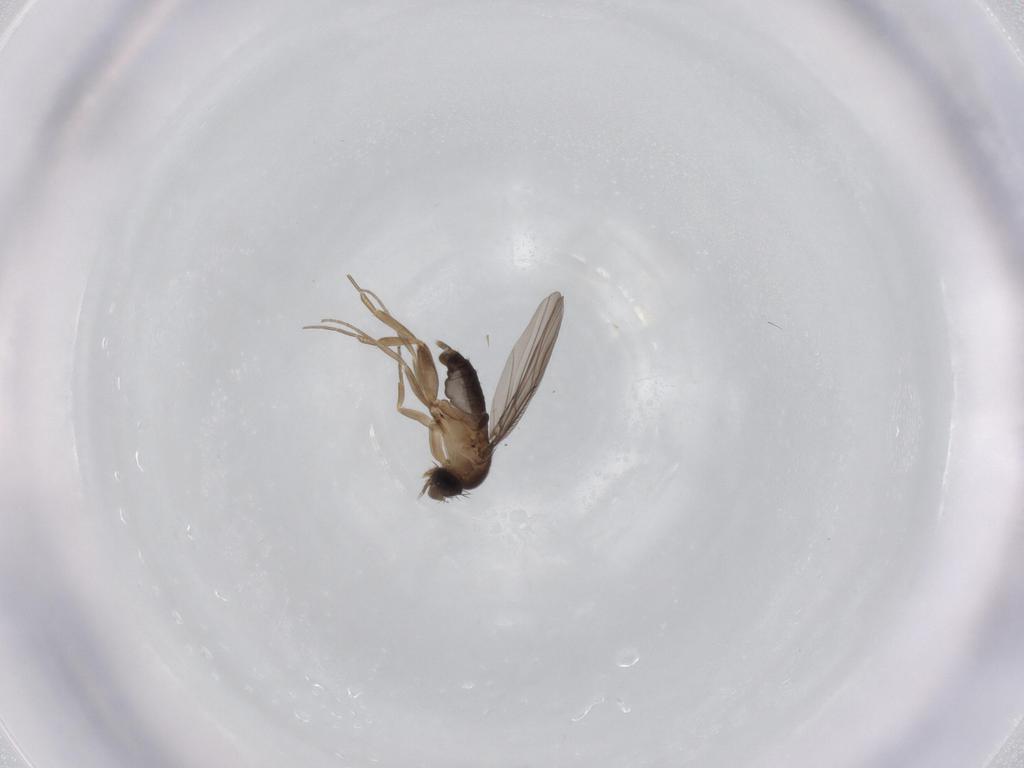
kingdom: Animalia
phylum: Arthropoda
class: Insecta
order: Diptera
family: Phoridae
